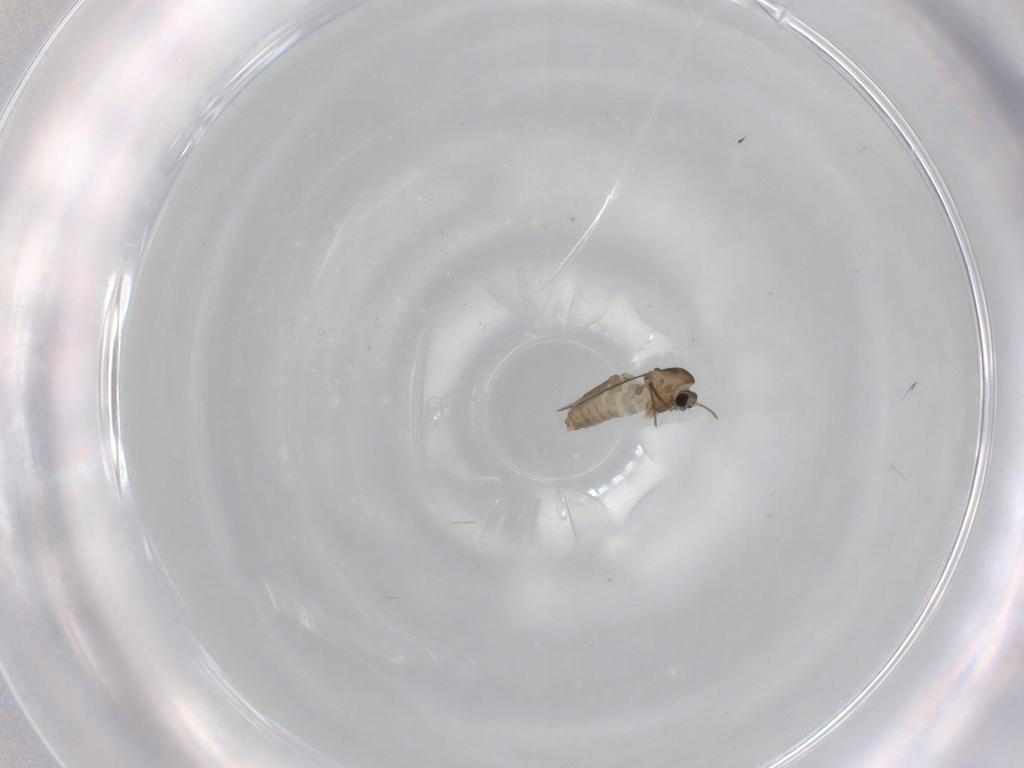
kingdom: Animalia
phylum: Arthropoda
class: Insecta
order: Diptera
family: Chironomidae
